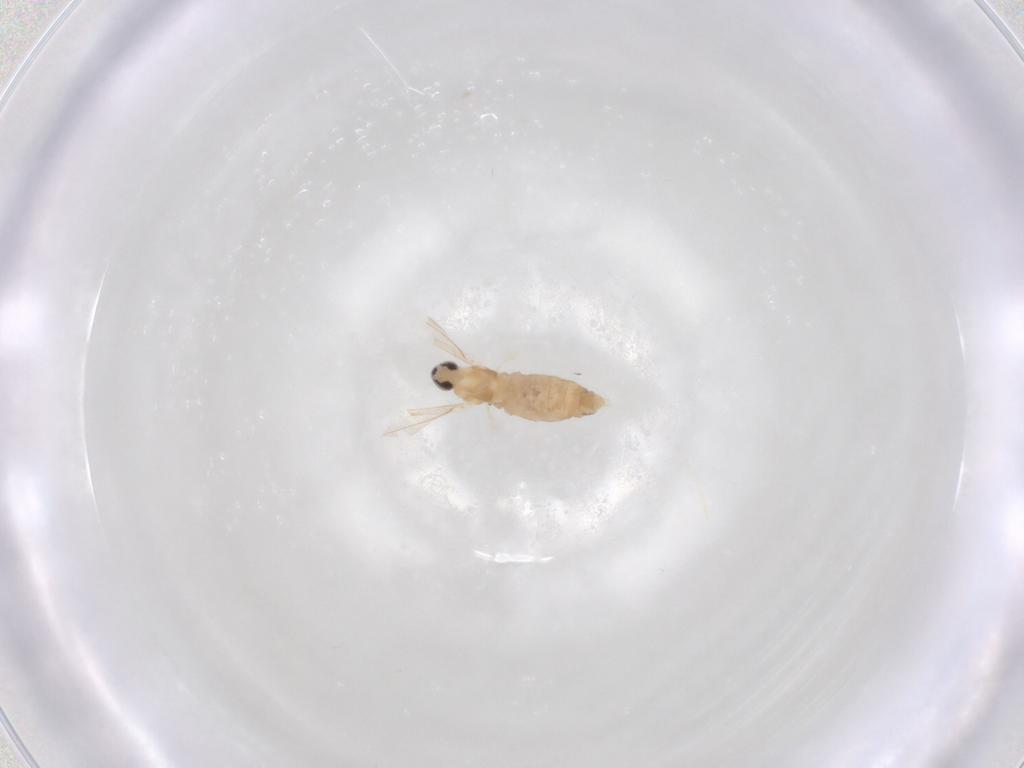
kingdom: Animalia
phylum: Arthropoda
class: Insecta
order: Diptera
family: Cecidomyiidae
